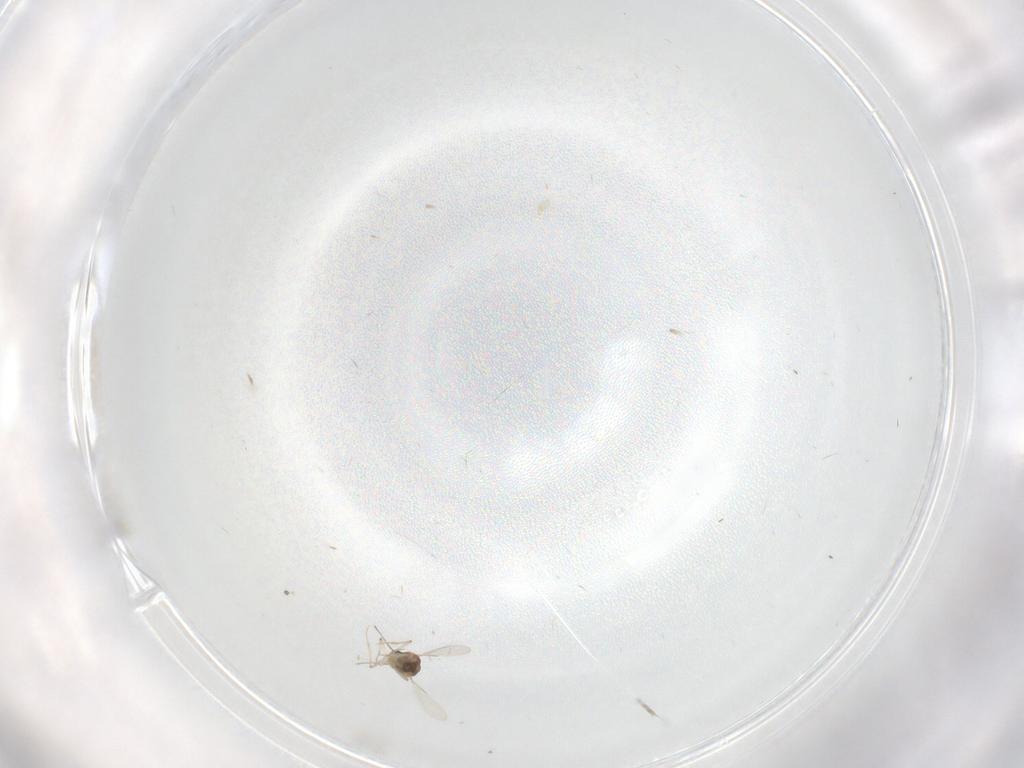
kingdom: Animalia
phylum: Arthropoda
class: Insecta
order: Diptera
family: Ceratopogonidae
